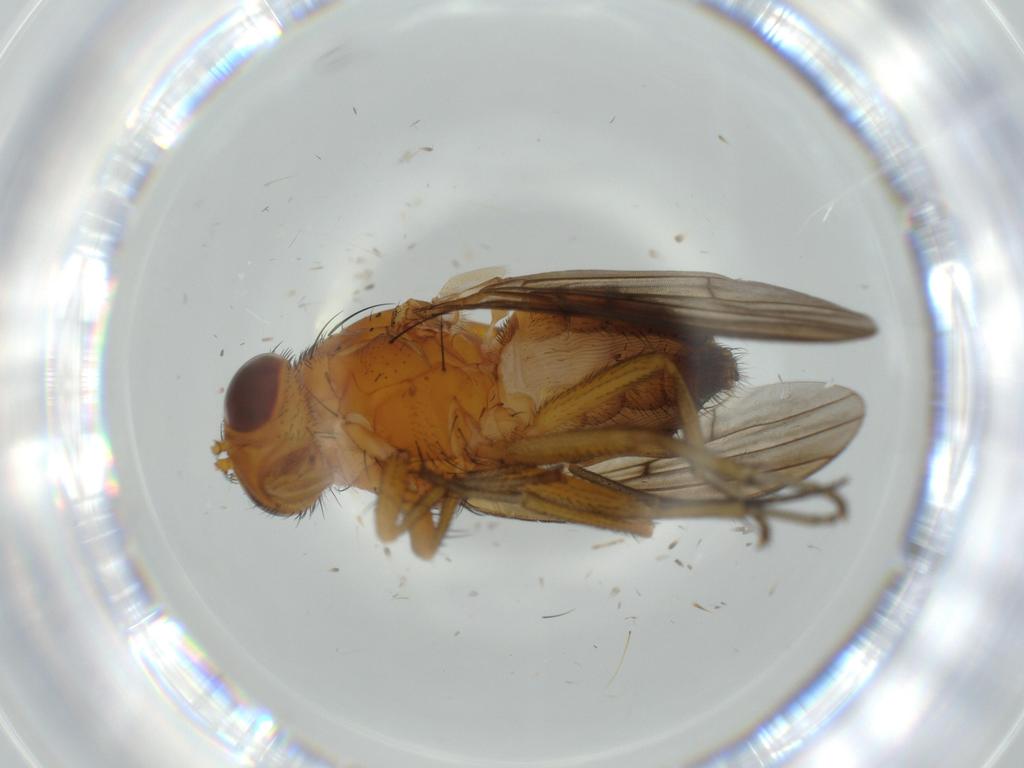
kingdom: Animalia
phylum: Arthropoda
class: Insecta
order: Diptera
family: Mycetophilidae
